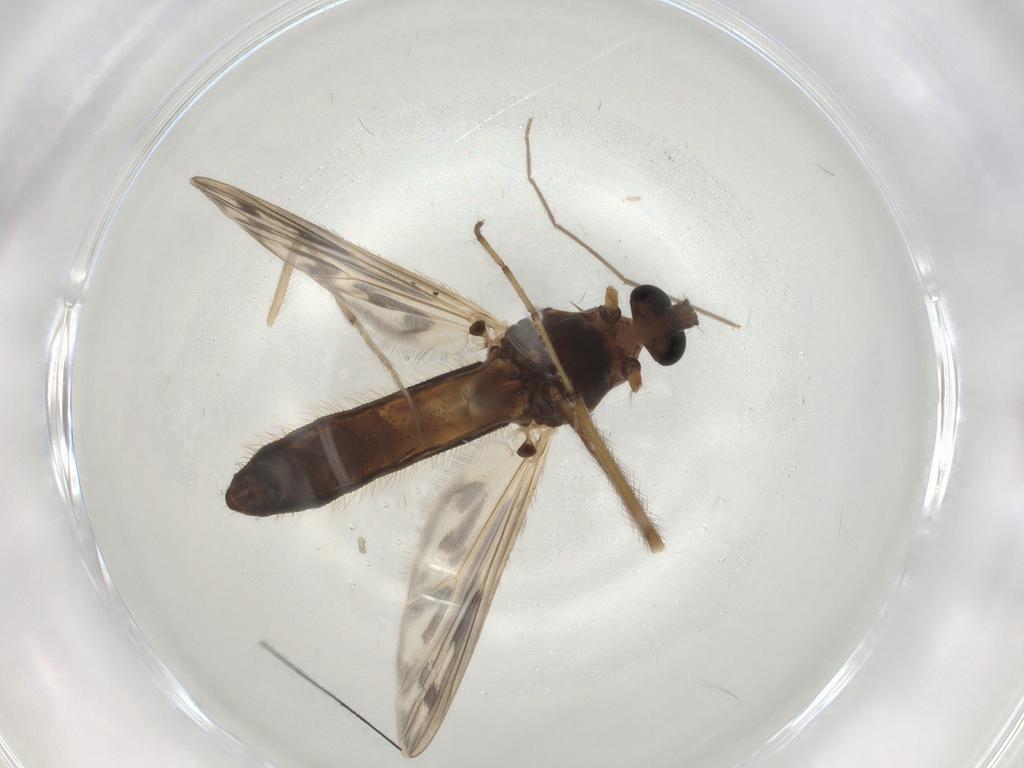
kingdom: Animalia
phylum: Arthropoda
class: Insecta
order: Diptera
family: Chironomidae
